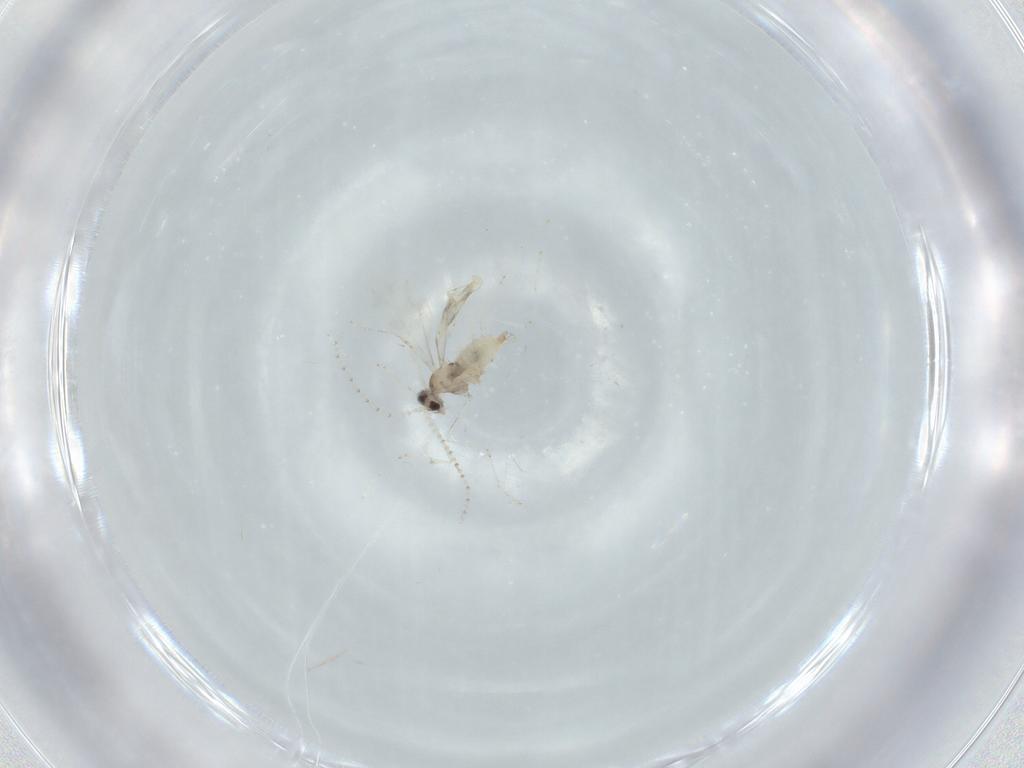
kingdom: Animalia
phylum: Arthropoda
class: Insecta
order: Diptera
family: Cecidomyiidae
